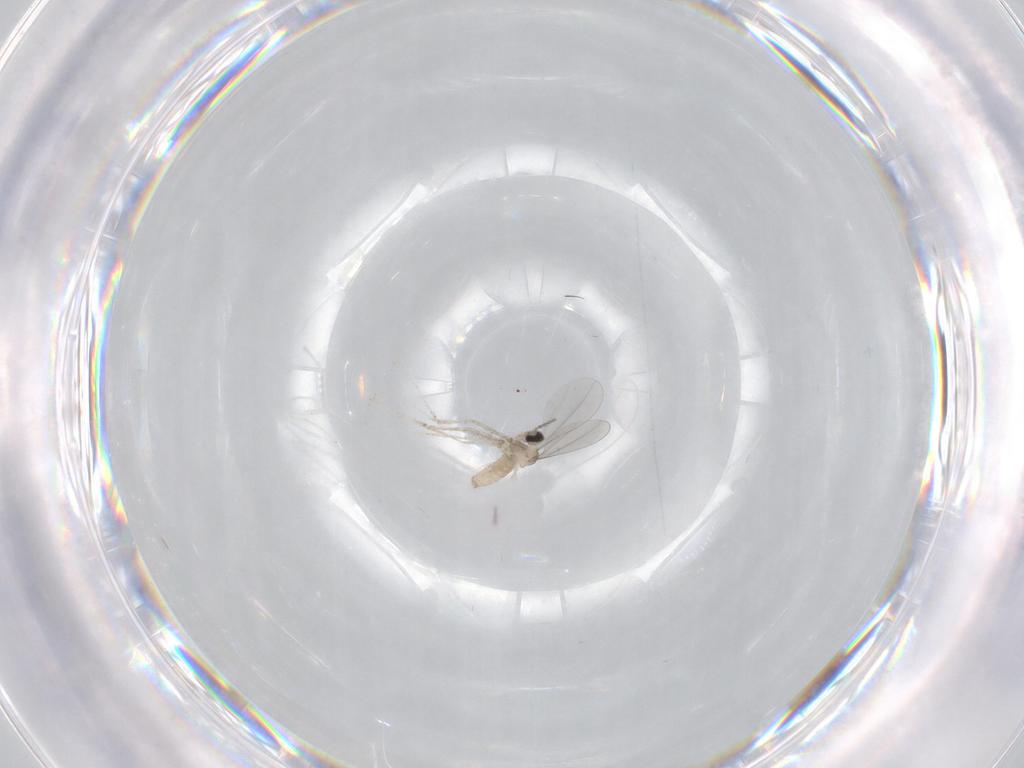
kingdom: Animalia
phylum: Arthropoda
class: Insecta
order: Diptera
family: Cecidomyiidae
